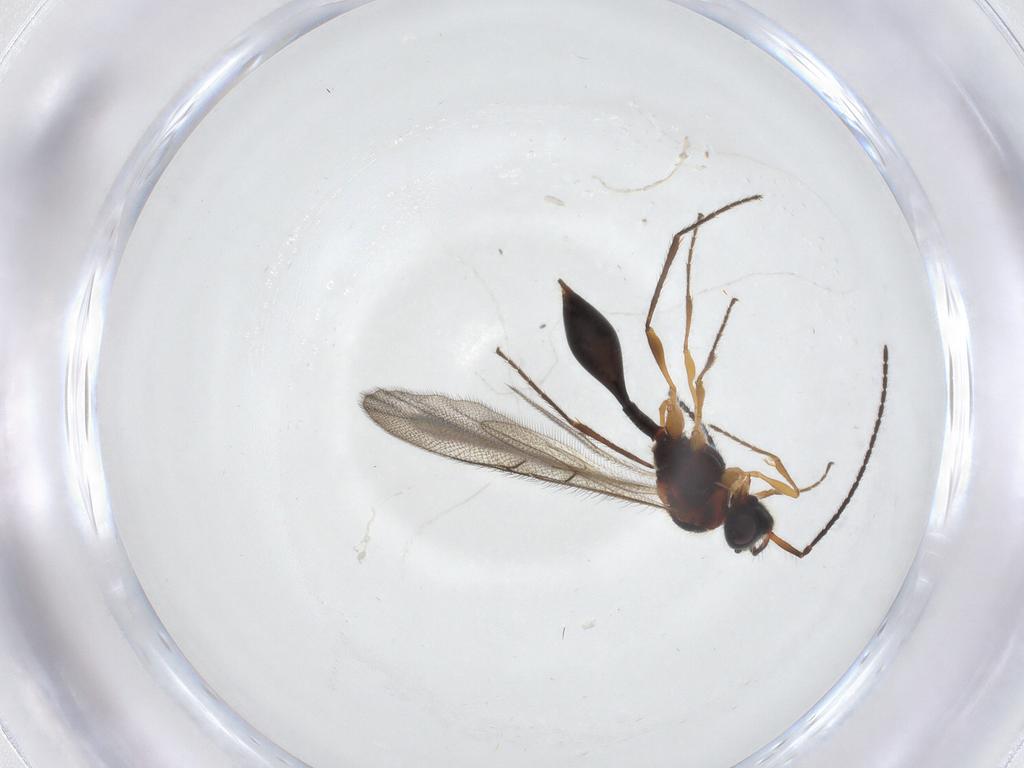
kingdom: Animalia
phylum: Arthropoda
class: Insecta
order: Hymenoptera
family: Diapriidae
